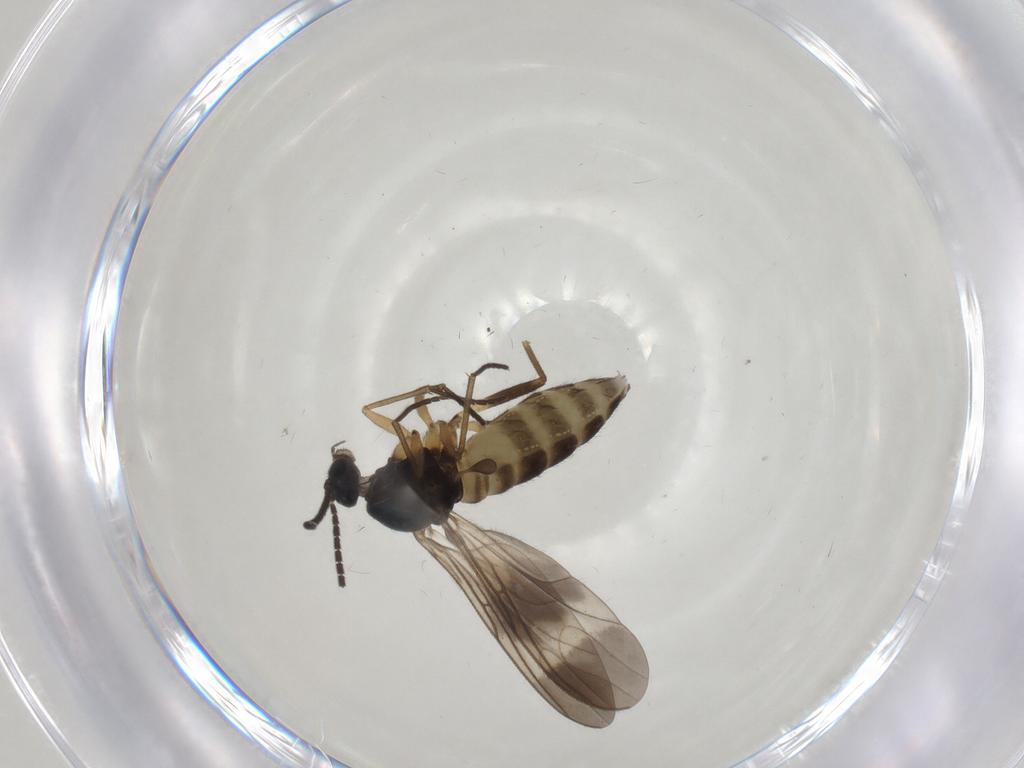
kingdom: Animalia
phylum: Arthropoda
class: Insecta
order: Diptera
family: Sciaridae
